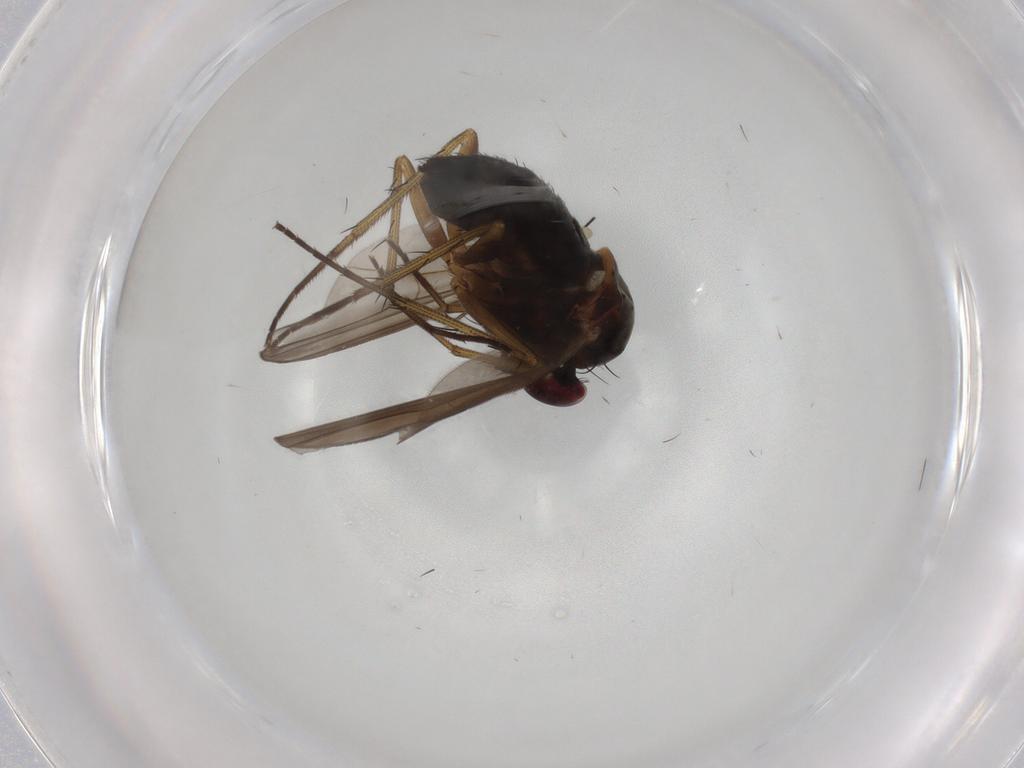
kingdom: Animalia
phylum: Arthropoda
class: Insecta
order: Diptera
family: Dolichopodidae
